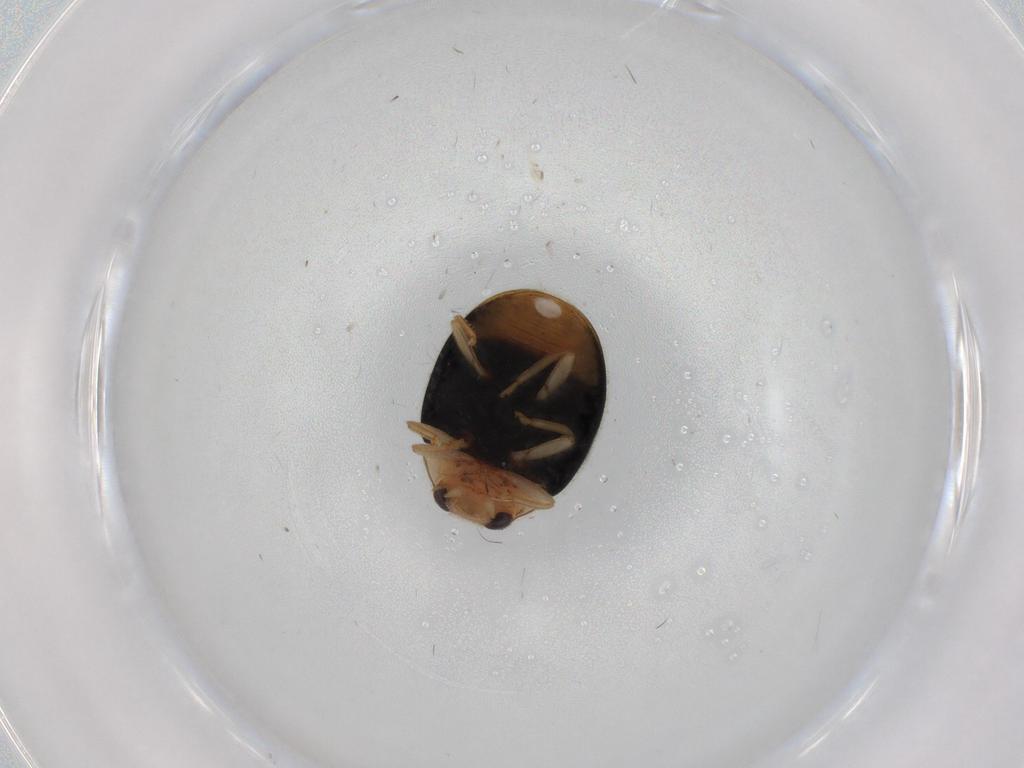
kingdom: Animalia
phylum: Arthropoda
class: Insecta
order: Coleoptera
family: Coccinellidae
